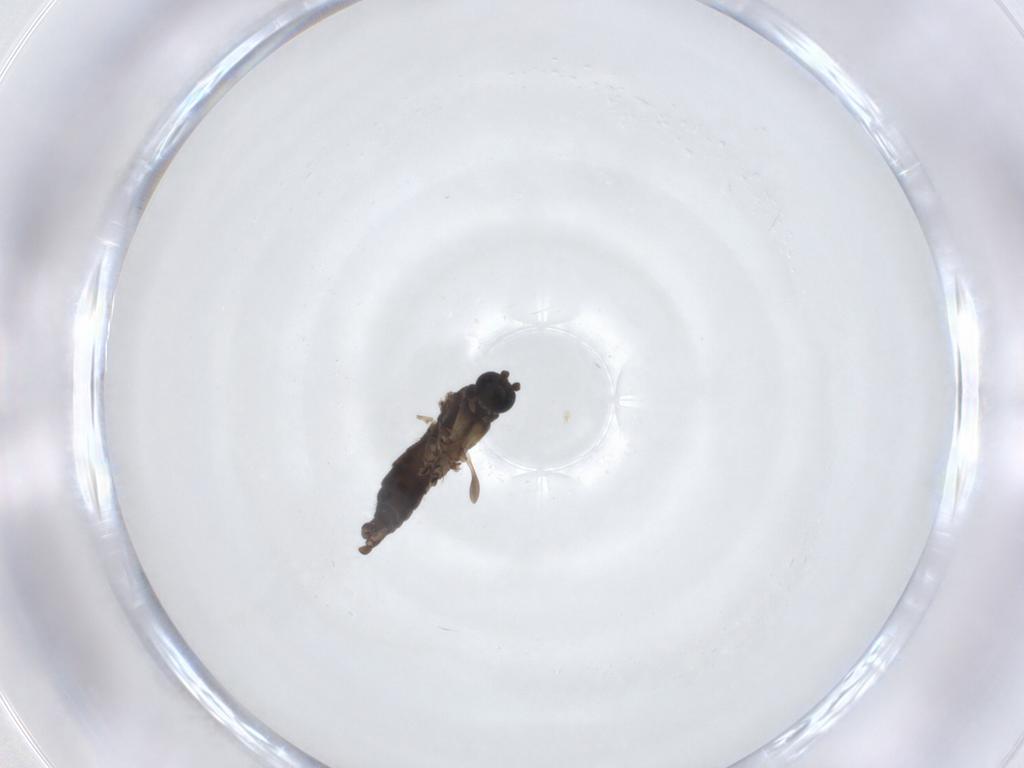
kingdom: Animalia
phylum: Arthropoda
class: Insecta
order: Diptera
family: Sciaridae
